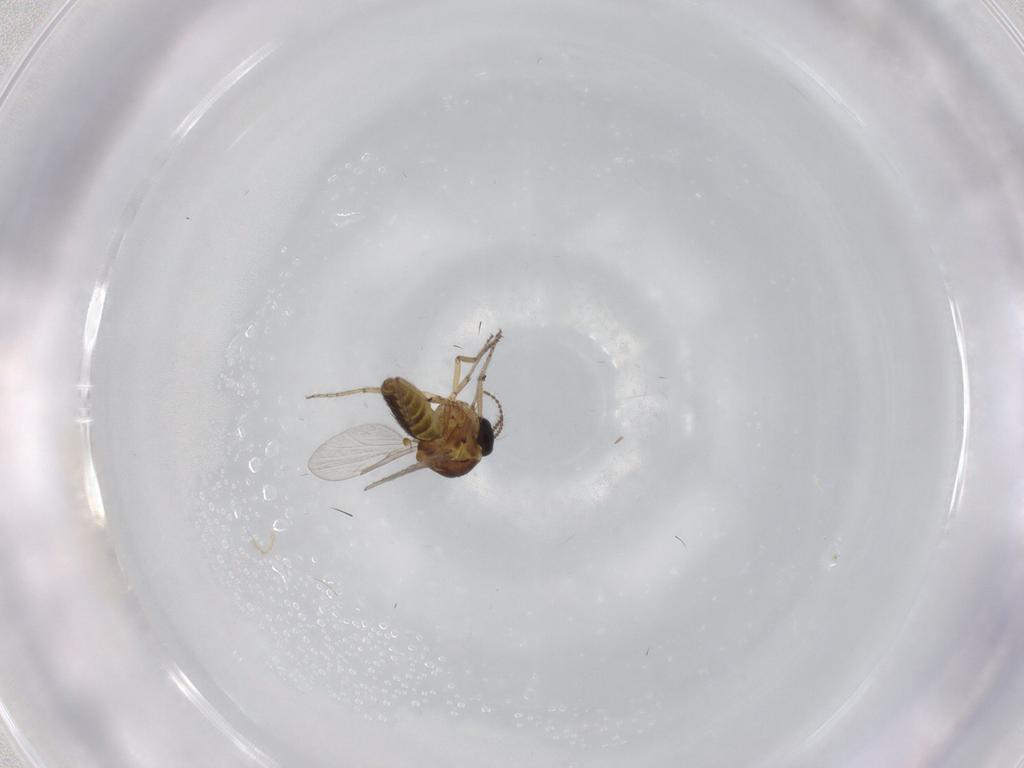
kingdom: Animalia
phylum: Arthropoda
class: Insecta
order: Diptera
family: Ceratopogonidae
